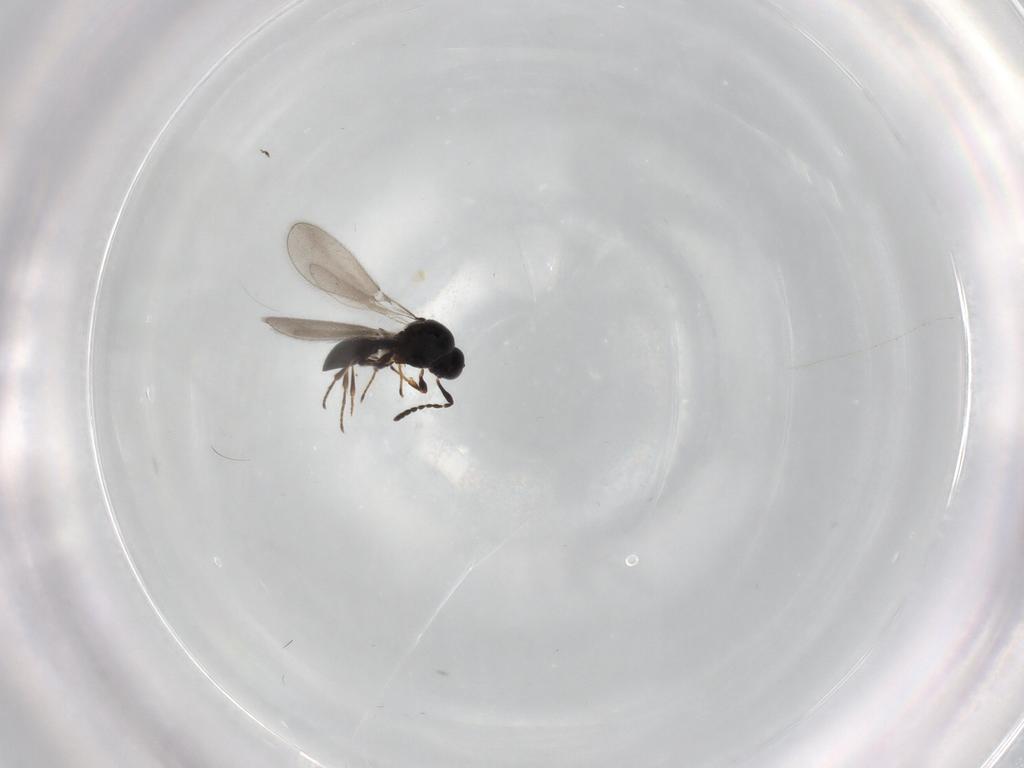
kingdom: Animalia
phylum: Arthropoda
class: Insecta
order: Hymenoptera
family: Platygastridae
